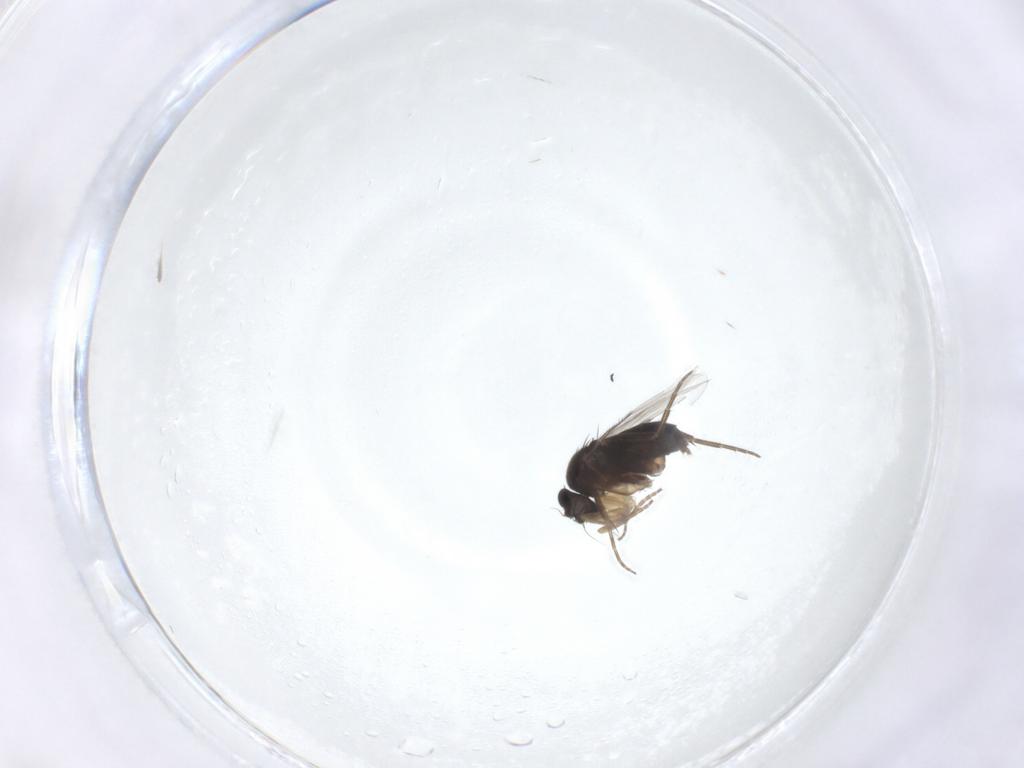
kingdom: Animalia
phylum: Arthropoda
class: Insecta
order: Diptera
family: Phoridae
